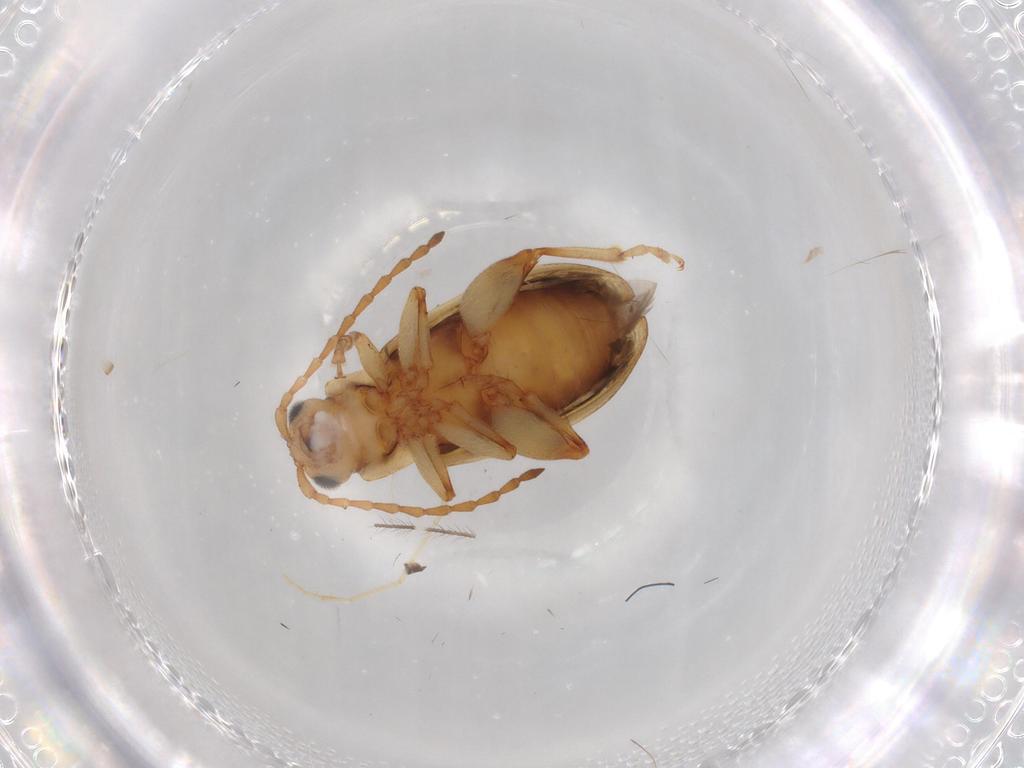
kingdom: Animalia
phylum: Arthropoda
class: Insecta
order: Coleoptera
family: Chrysomelidae
